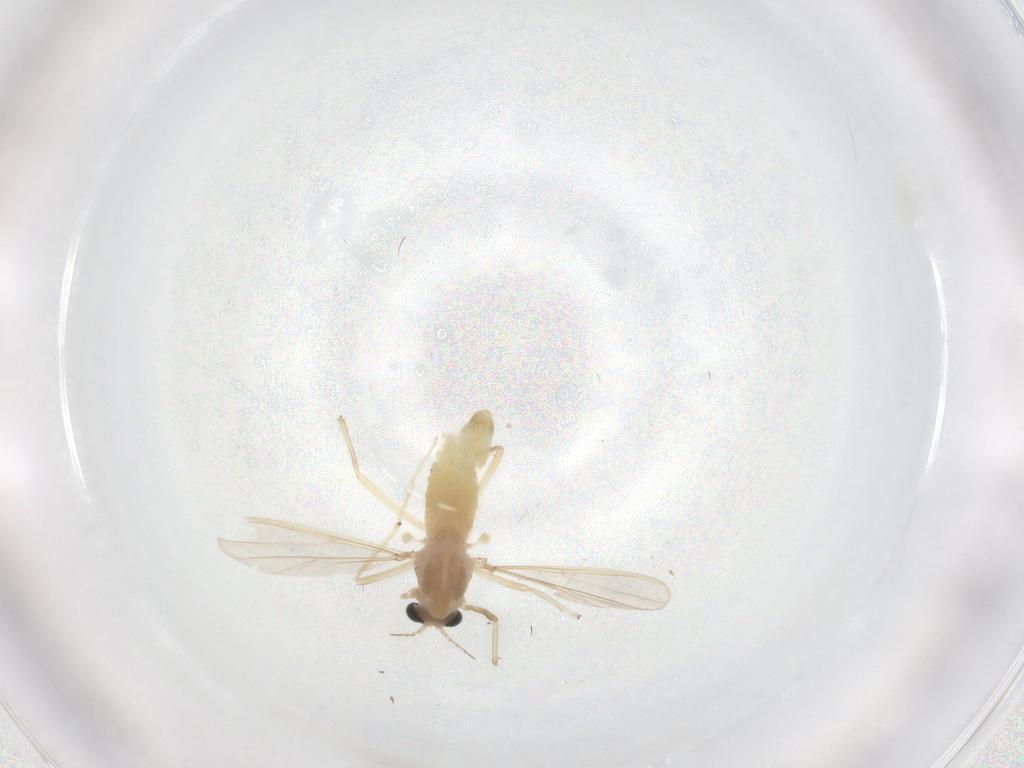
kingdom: Animalia
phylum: Arthropoda
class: Insecta
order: Diptera
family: Chironomidae
